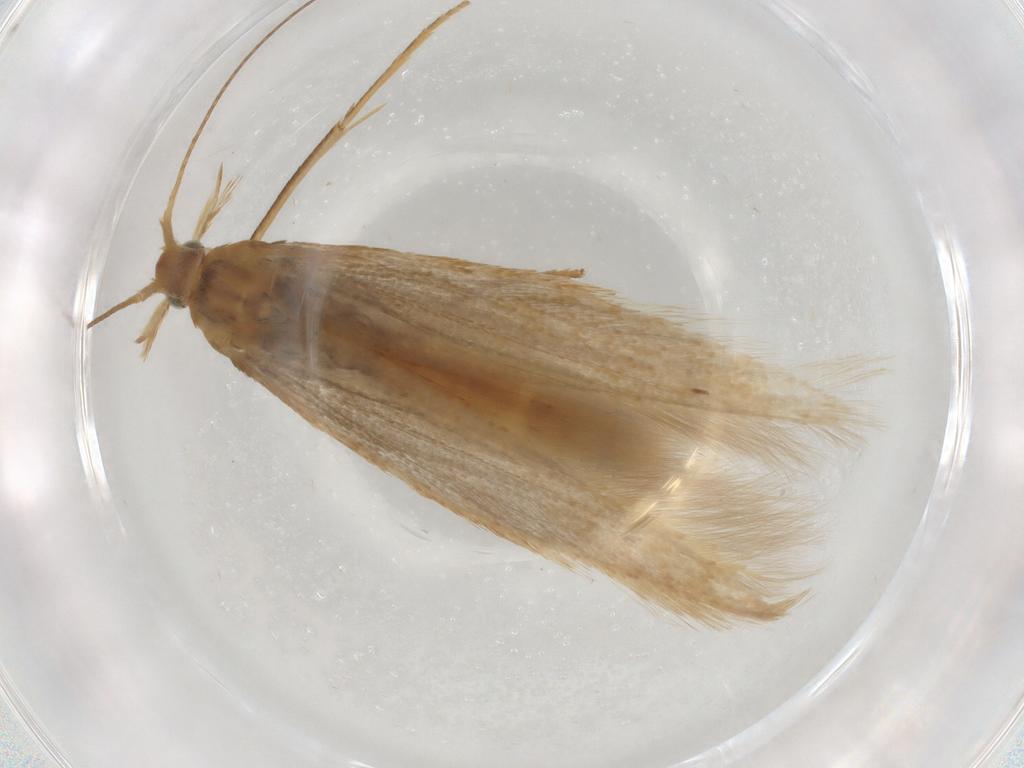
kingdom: Animalia
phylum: Arthropoda
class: Insecta
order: Lepidoptera
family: Coleophoridae
